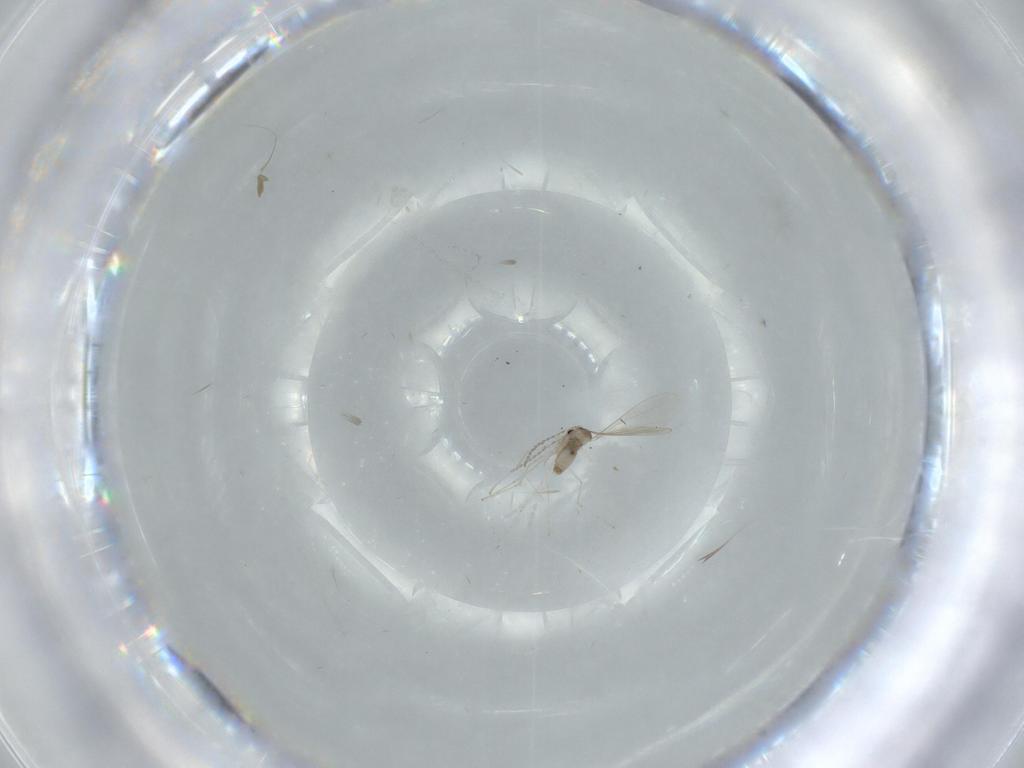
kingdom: Animalia
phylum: Arthropoda
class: Insecta
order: Diptera
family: Cecidomyiidae
